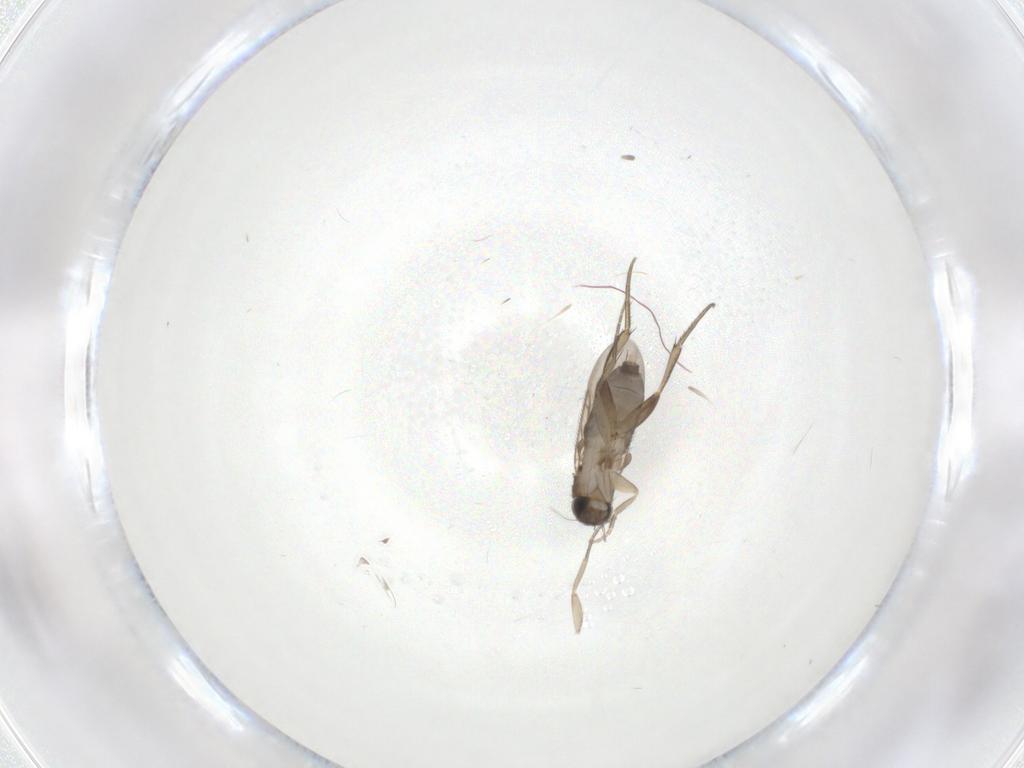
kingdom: Animalia
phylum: Arthropoda
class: Insecta
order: Diptera
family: Phoridae
